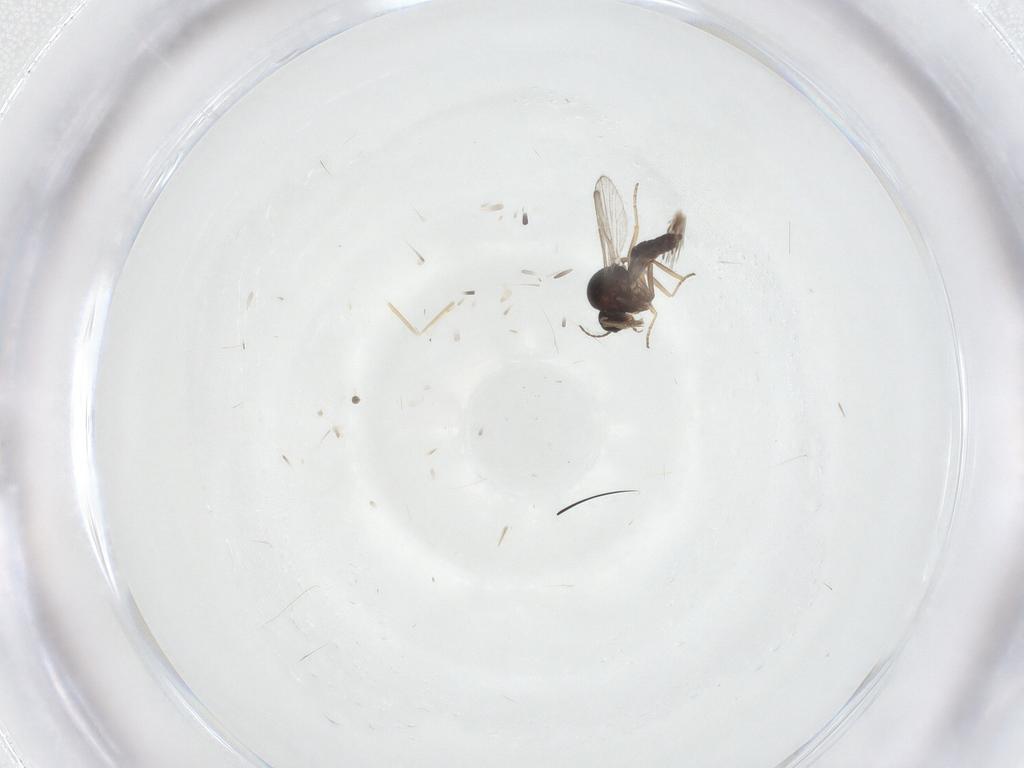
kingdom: Animalia
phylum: Arthropoda
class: Insecta
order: Diptera
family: Ceratopogonidae
